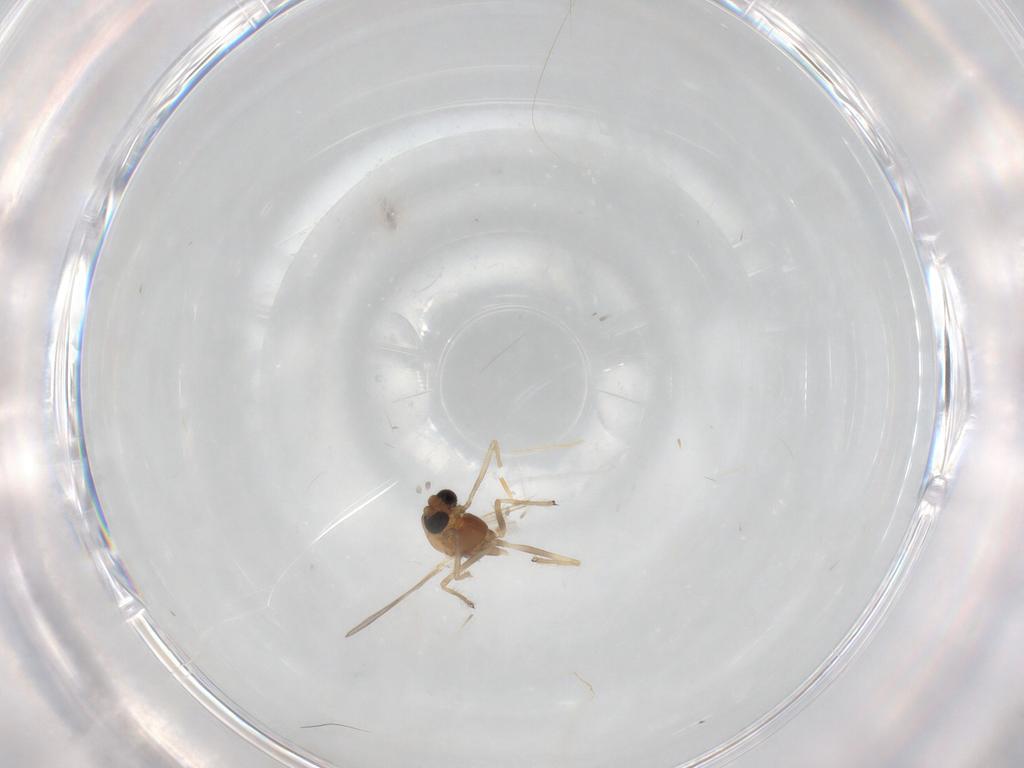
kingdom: Animalia
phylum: Arthropoda
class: Insecta
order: Diptera
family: Chironomidae
